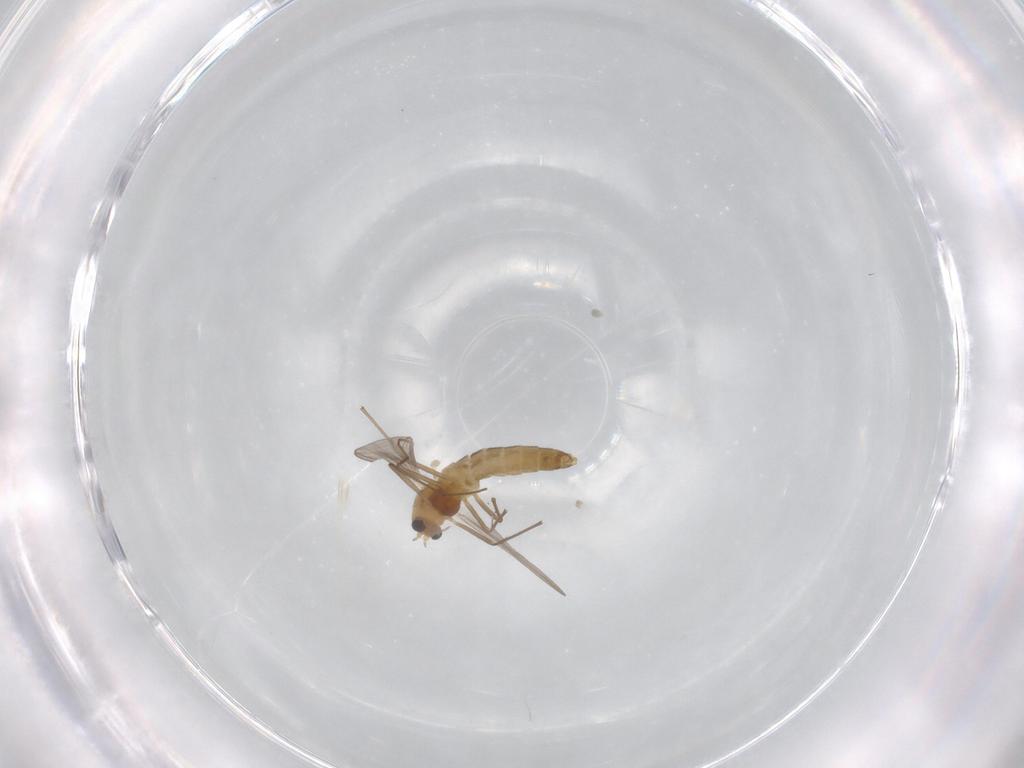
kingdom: Animalia
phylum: Arthropoda
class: Insecta
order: Diptera
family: Chironomidae
